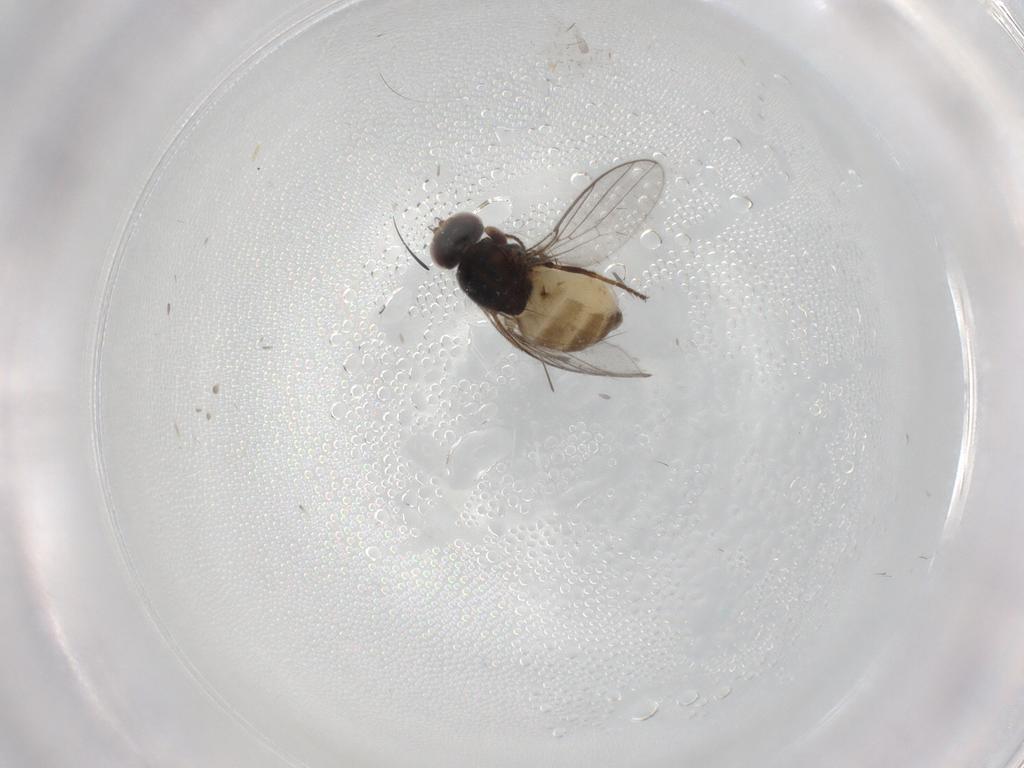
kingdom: Animalia
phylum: Arthropoda
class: Insecta
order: Diptera
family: Chloropidae
